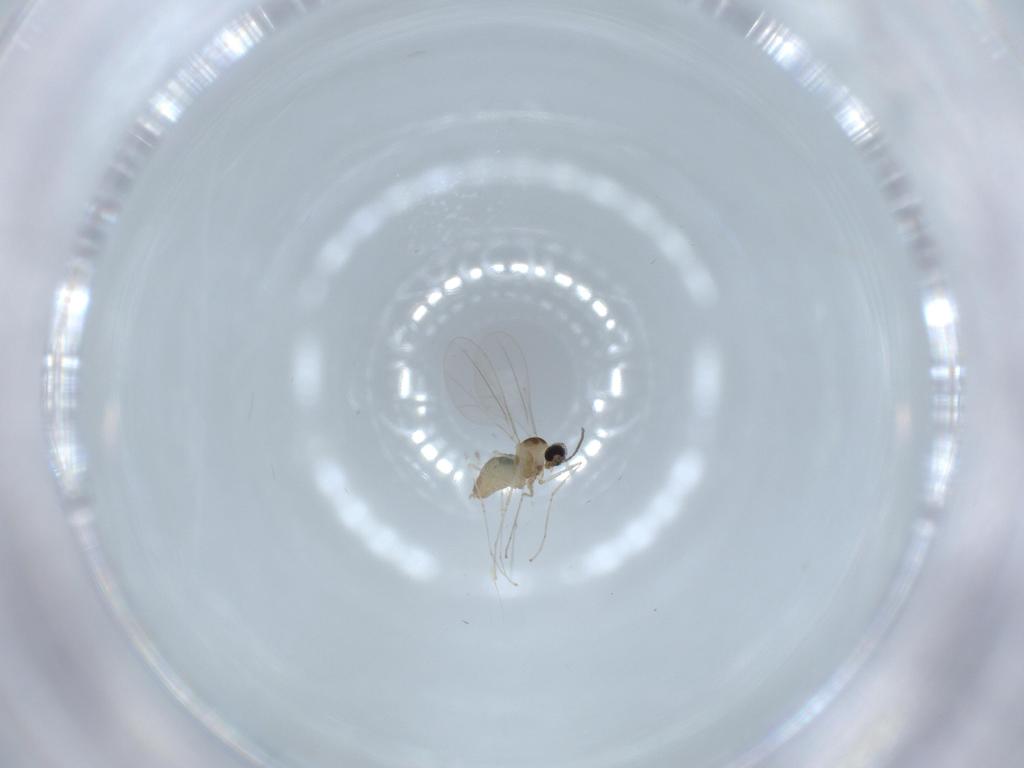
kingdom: Animalia
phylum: Arthropoda
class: Insecta
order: Diptera
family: Cecidomyiidae
